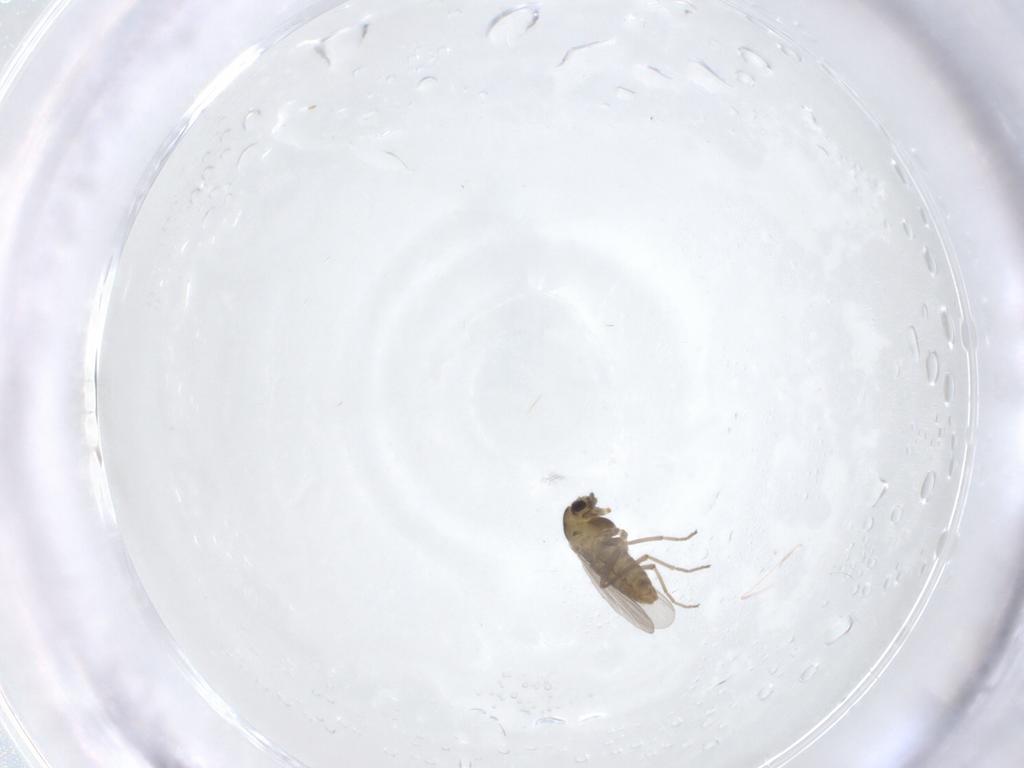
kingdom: Animalia
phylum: Arthropoda
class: Insecta
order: Diptera
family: Chironomidae
